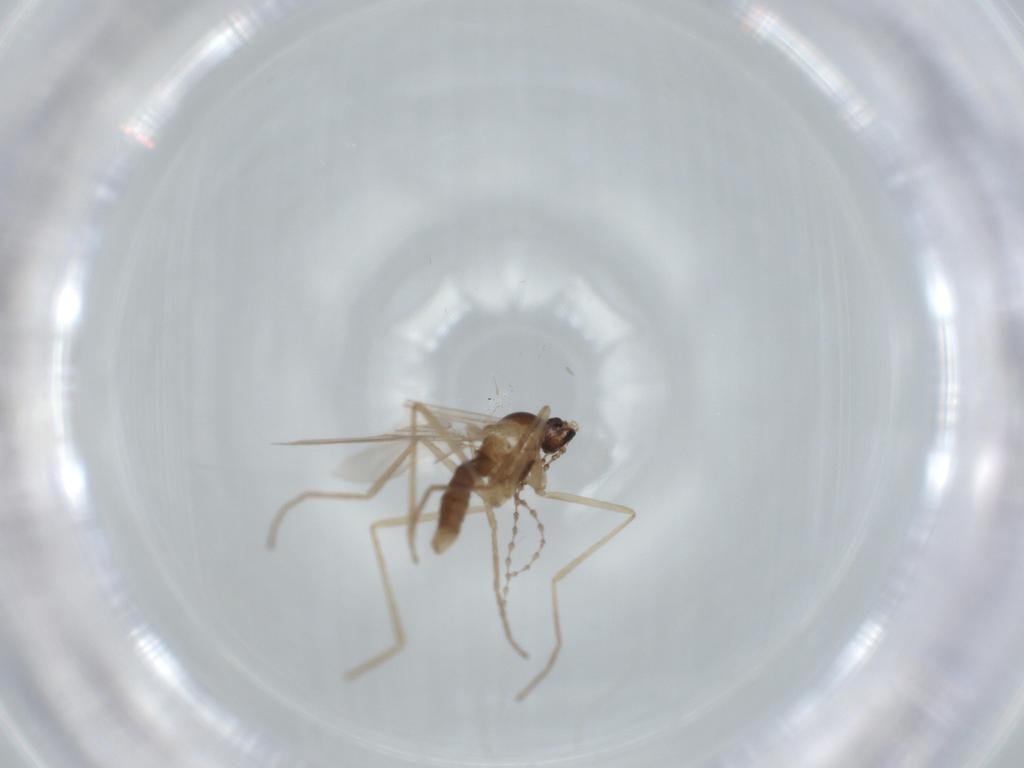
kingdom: Animalia
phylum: Arthropoda
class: Insecta
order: Diptera
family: Cecidomyiidae
